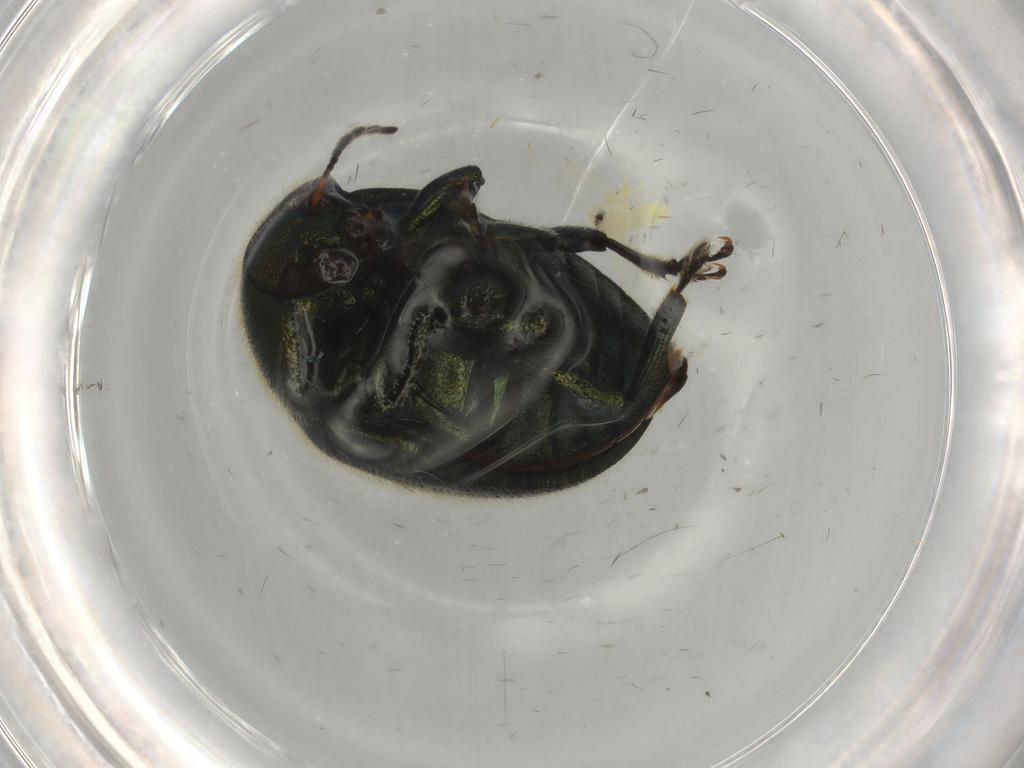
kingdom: Animalia
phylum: Arthropoda
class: Insecta
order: Coleoptera
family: Chrysomelidae
